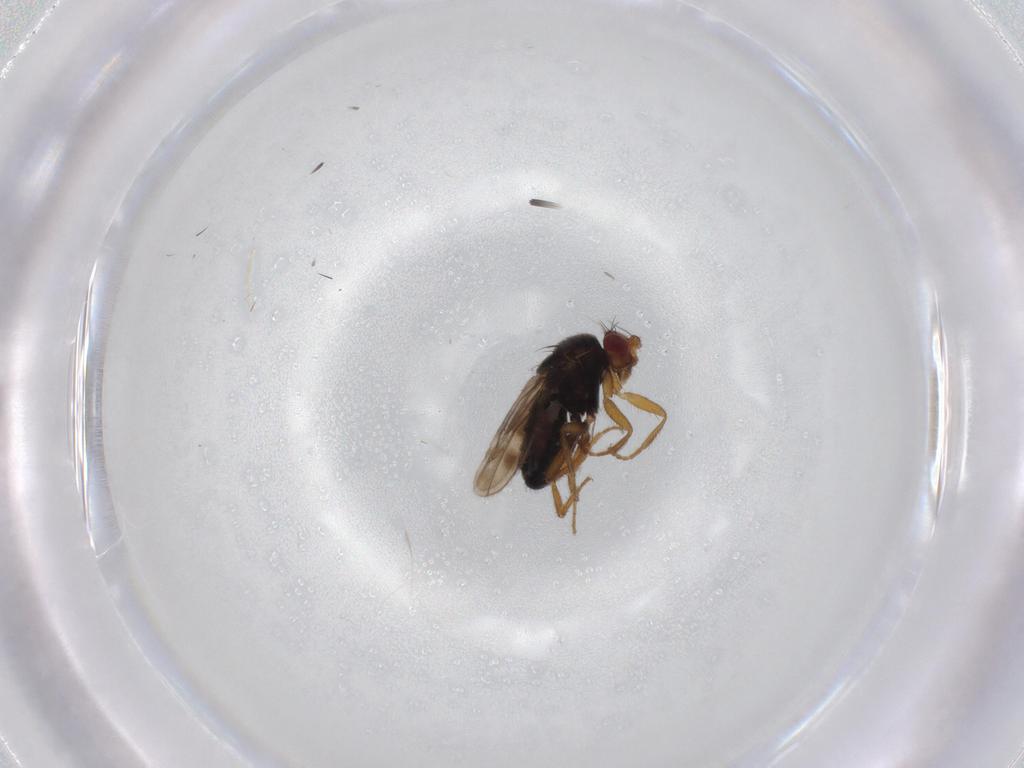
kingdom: Animalia
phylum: Arthropoda
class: Insecta
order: Diptera
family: Sphaeroceridae
